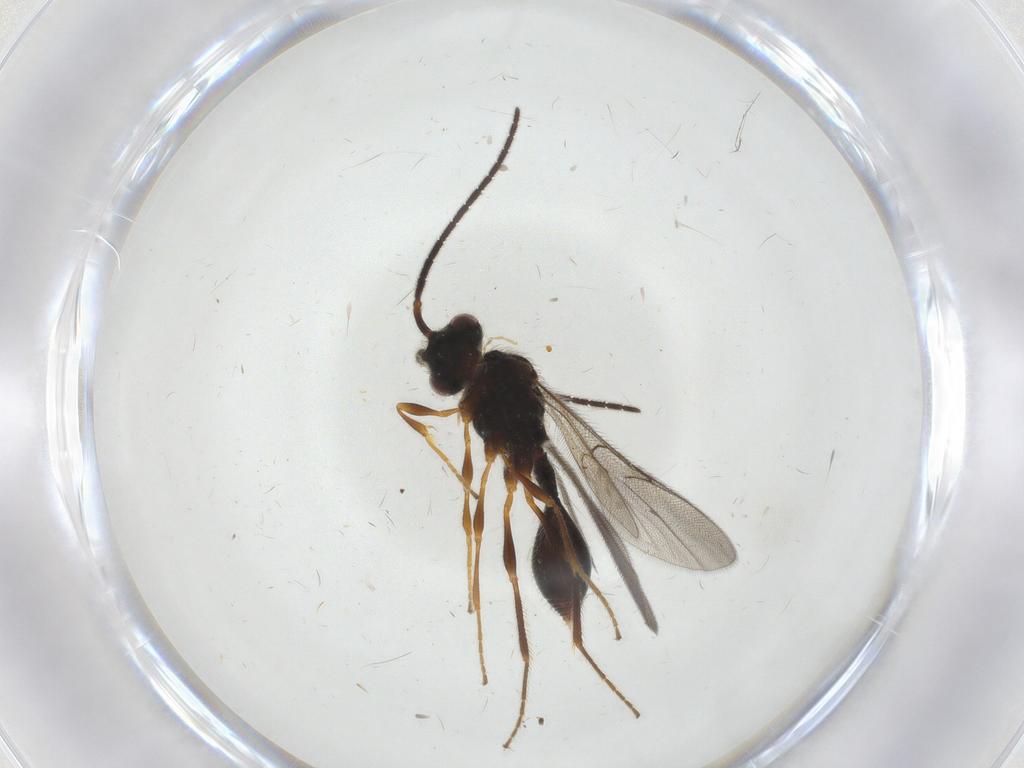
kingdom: Animalia
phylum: Arthropoda
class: Insecta
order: Hymenoptera
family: Diapriidae
